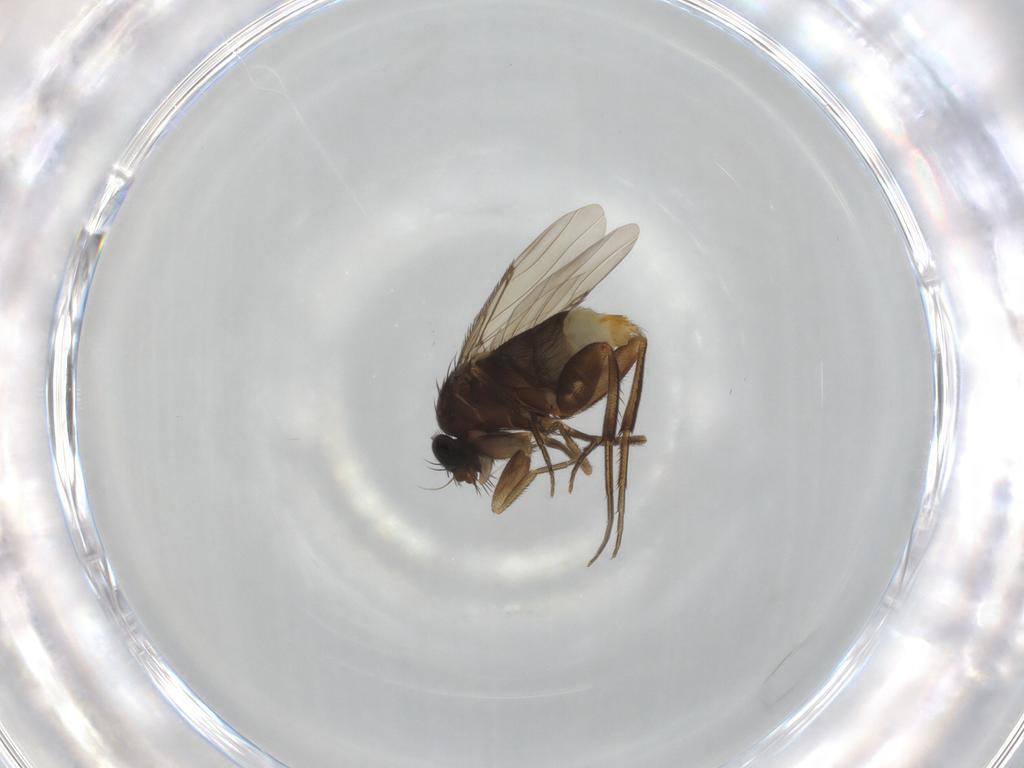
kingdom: Animalia
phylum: Arthropoda
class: Insecta
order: Diptera
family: Phoridae
